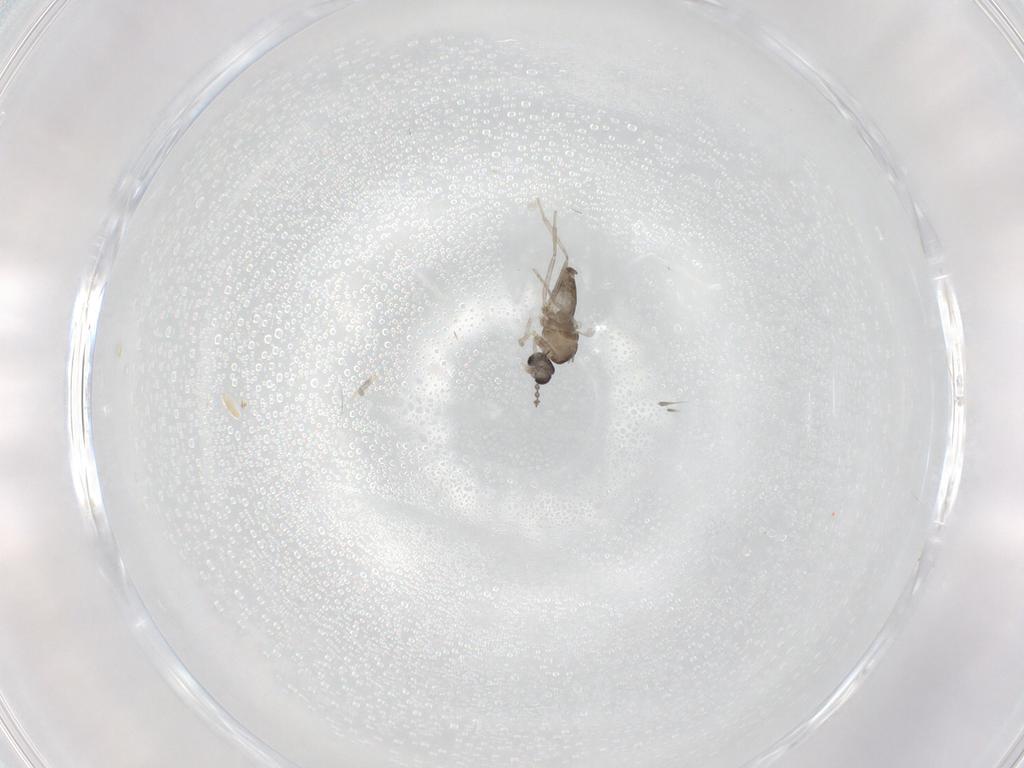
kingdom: Animalia
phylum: Arthropoda
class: Insecta
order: Diptera
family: Cecidomyiidae
